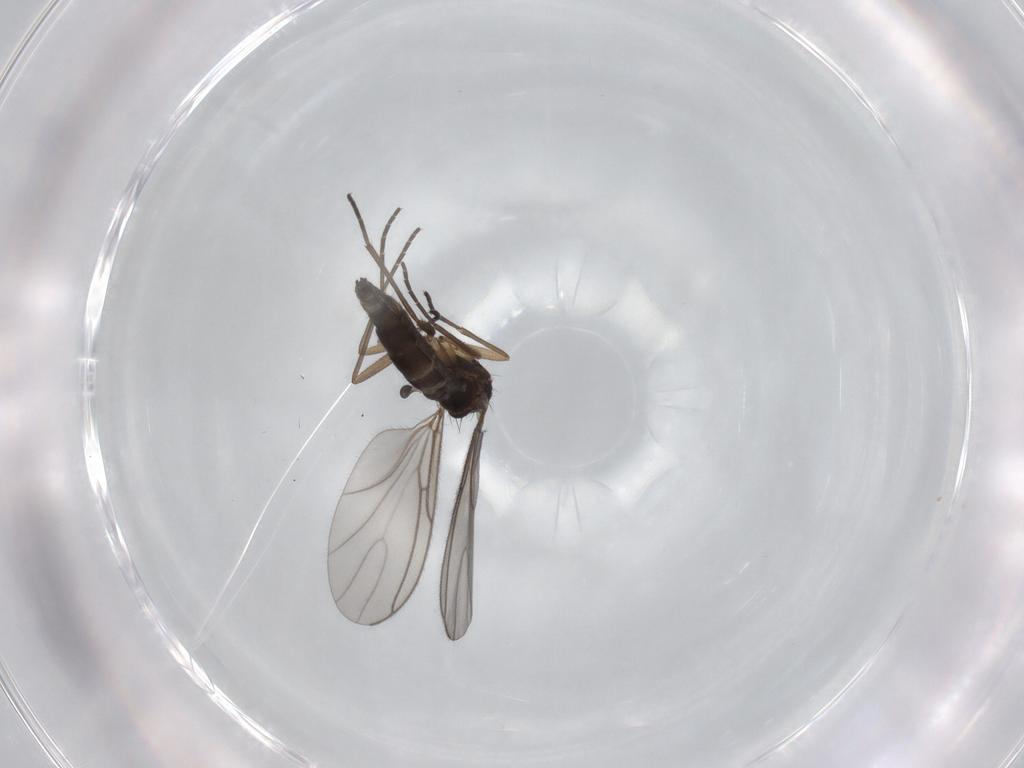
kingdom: Animalia
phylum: Arthropoda
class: Insecta
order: Diptera
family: Sciaridae
